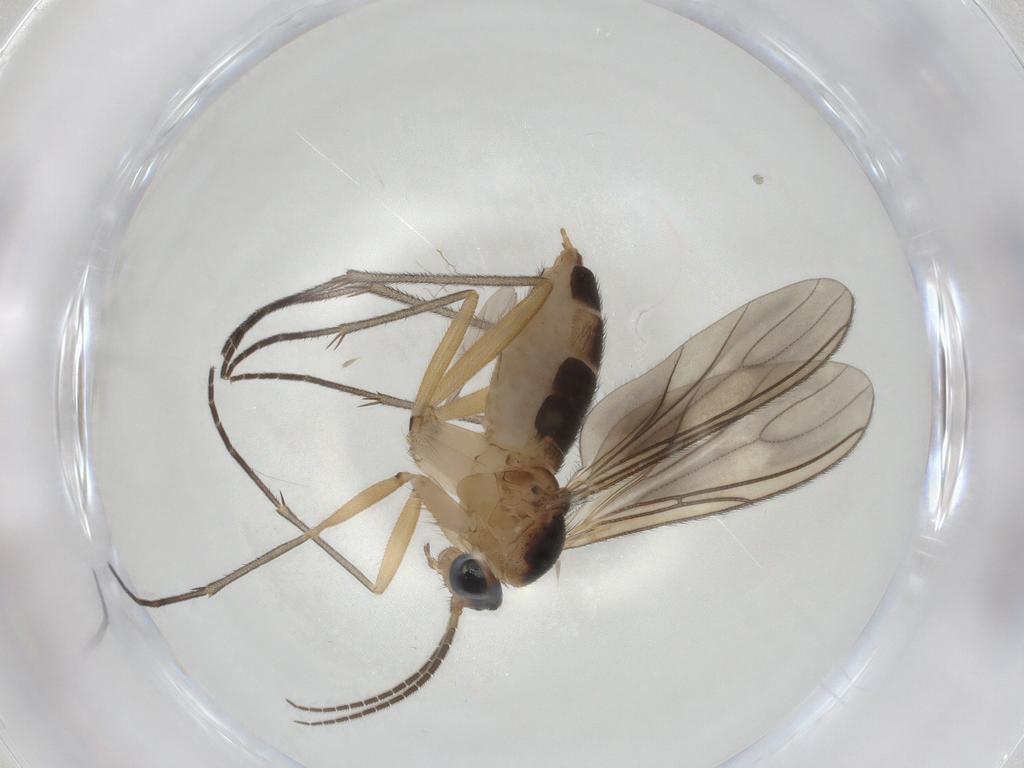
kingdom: Animalia
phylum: Arthropoda
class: Insecta
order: Diptera
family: Sciaridae
